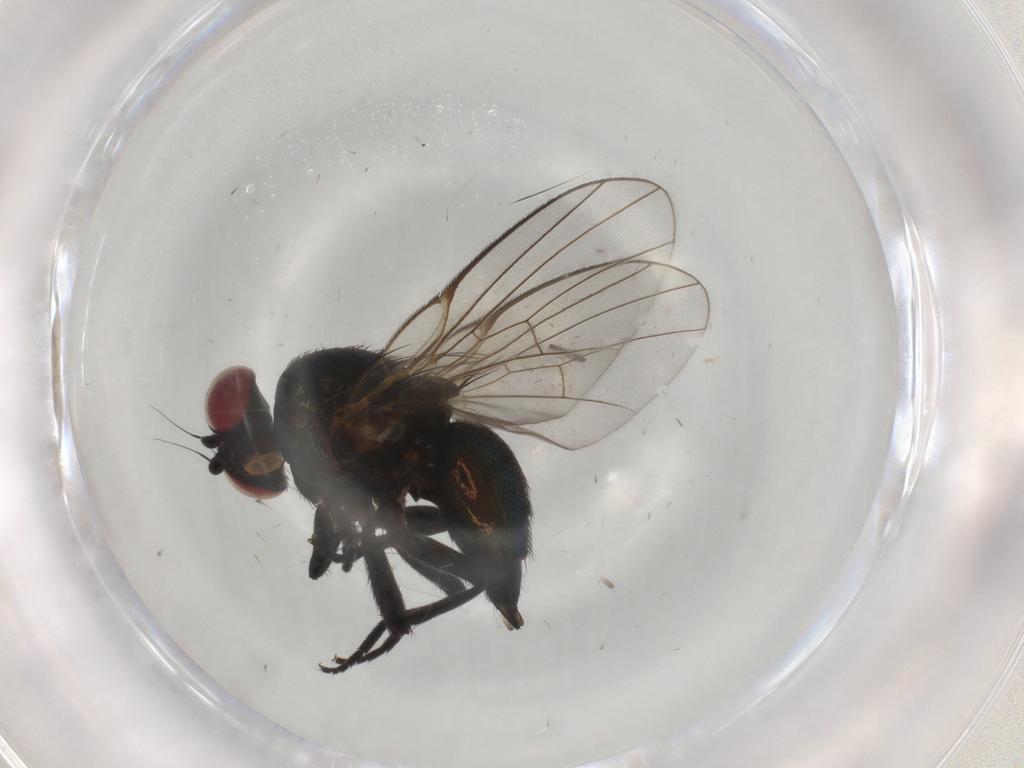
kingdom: Animalia
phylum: Arthropoda
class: Insecta
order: Diptera
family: Agromyzidae
